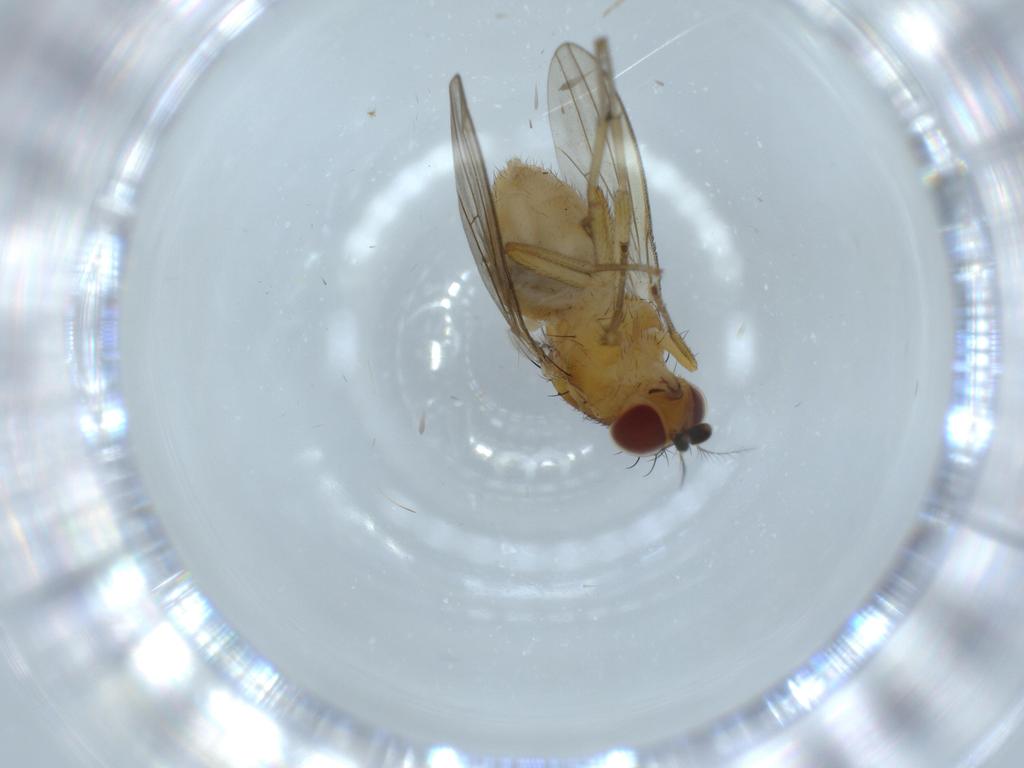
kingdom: Animalia
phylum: Arthropoda
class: Insecta
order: Diptera
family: Lauxaniidae
